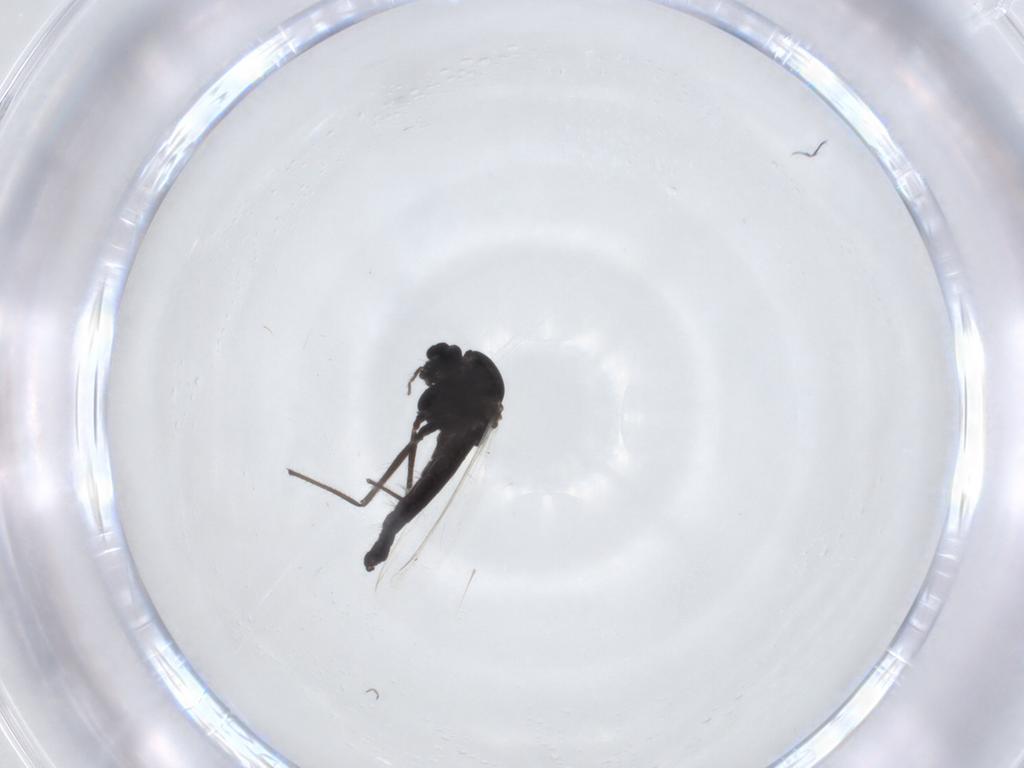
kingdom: Animalia
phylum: Arthropoda
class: Insecta
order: Diptera
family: Chironomidae
